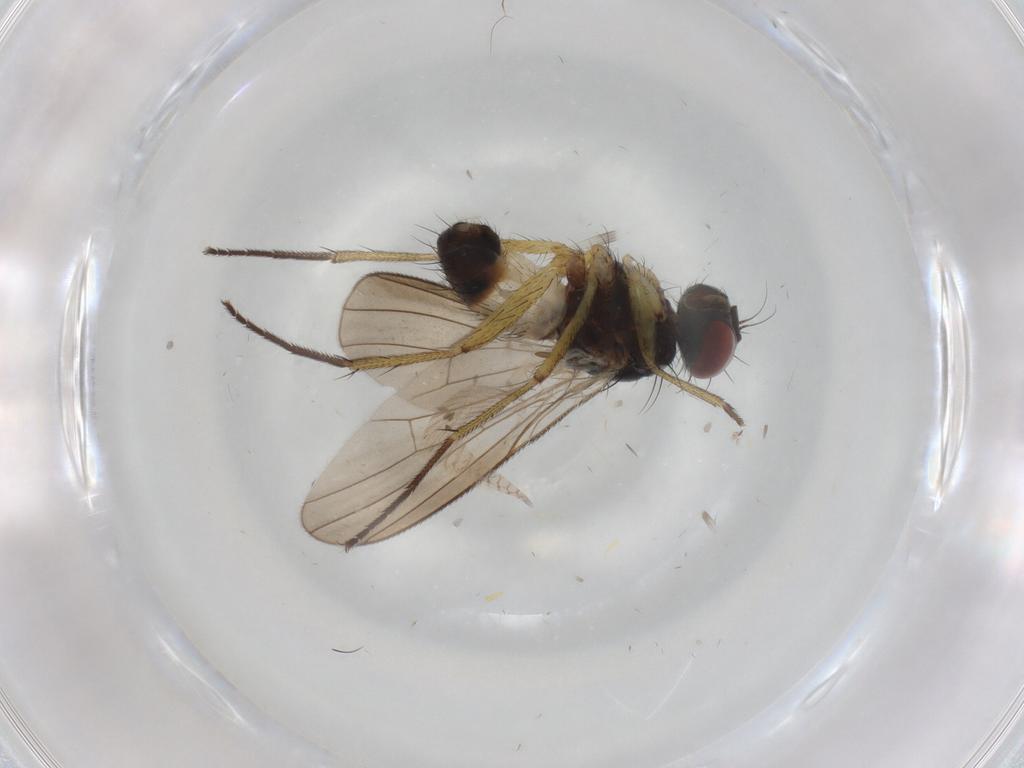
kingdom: Animalia
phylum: Arthropoda
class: Insecta
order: Diptera
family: Muscidae
